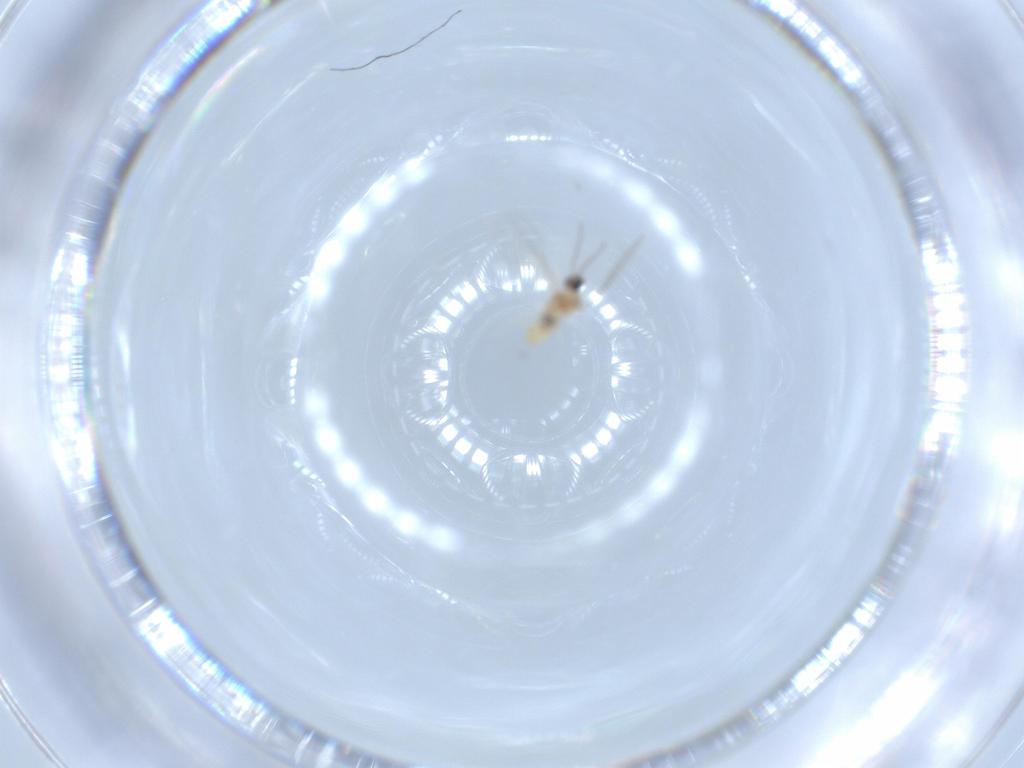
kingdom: Animalia
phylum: Arthropoda
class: Insecta
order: Diptera
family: Cecidomyiidae
